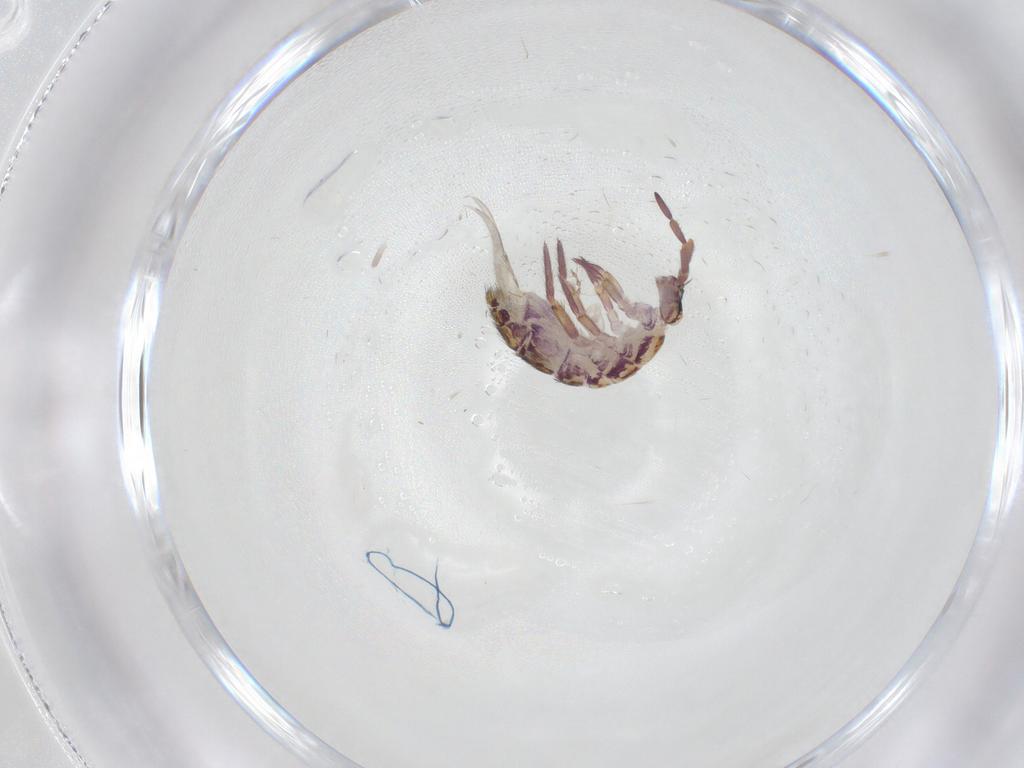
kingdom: Animalia
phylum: Arthropoda
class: Collembola
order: Entomobryomorpha
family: Isotomidae
